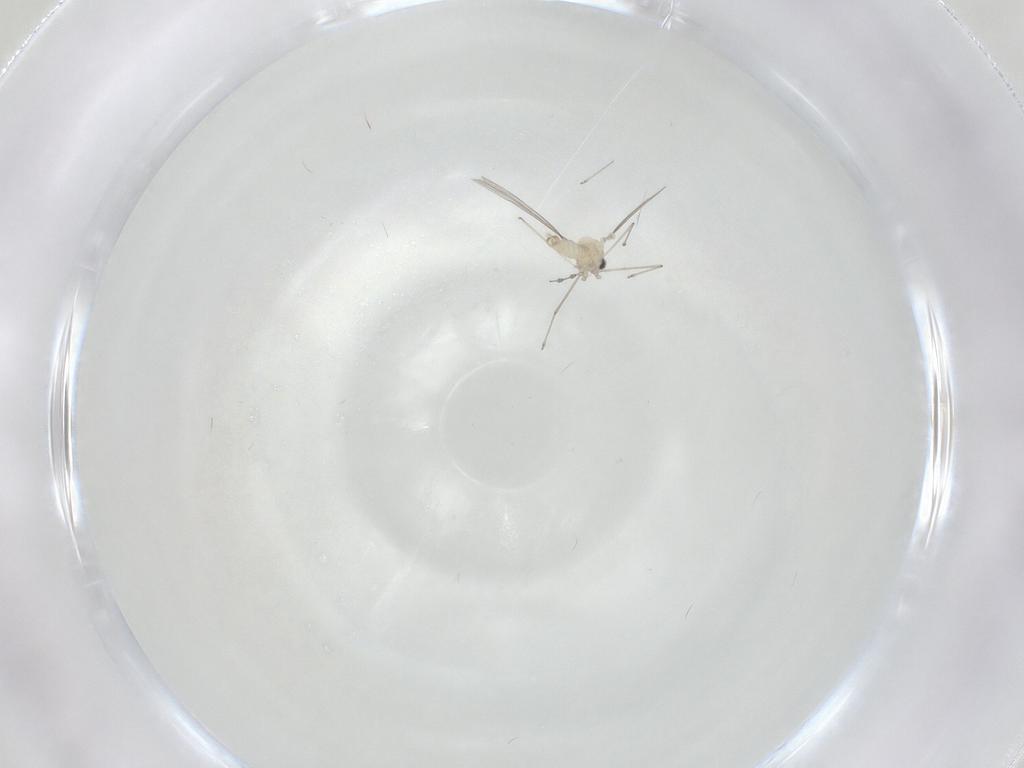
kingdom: Animalia
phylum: Arthropoda
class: Insecta
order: Diptera
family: Cecidomyiidae
